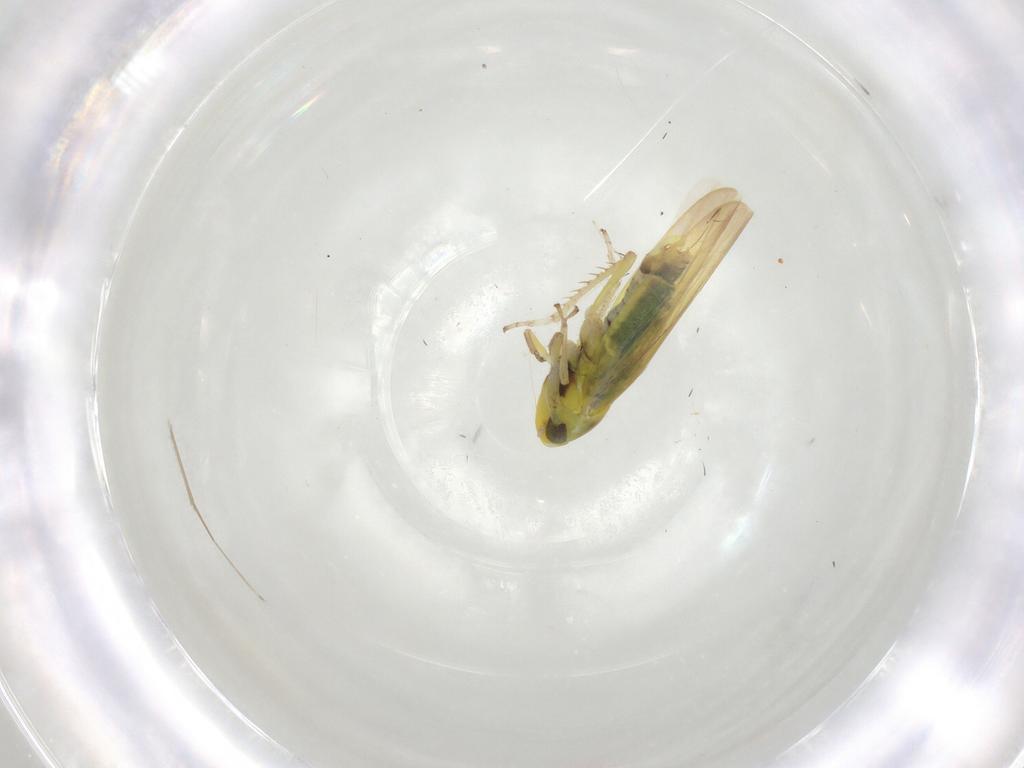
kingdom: Animalia
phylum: Arthropoda
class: Insecta
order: Hemiptera
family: Cicadellidae
